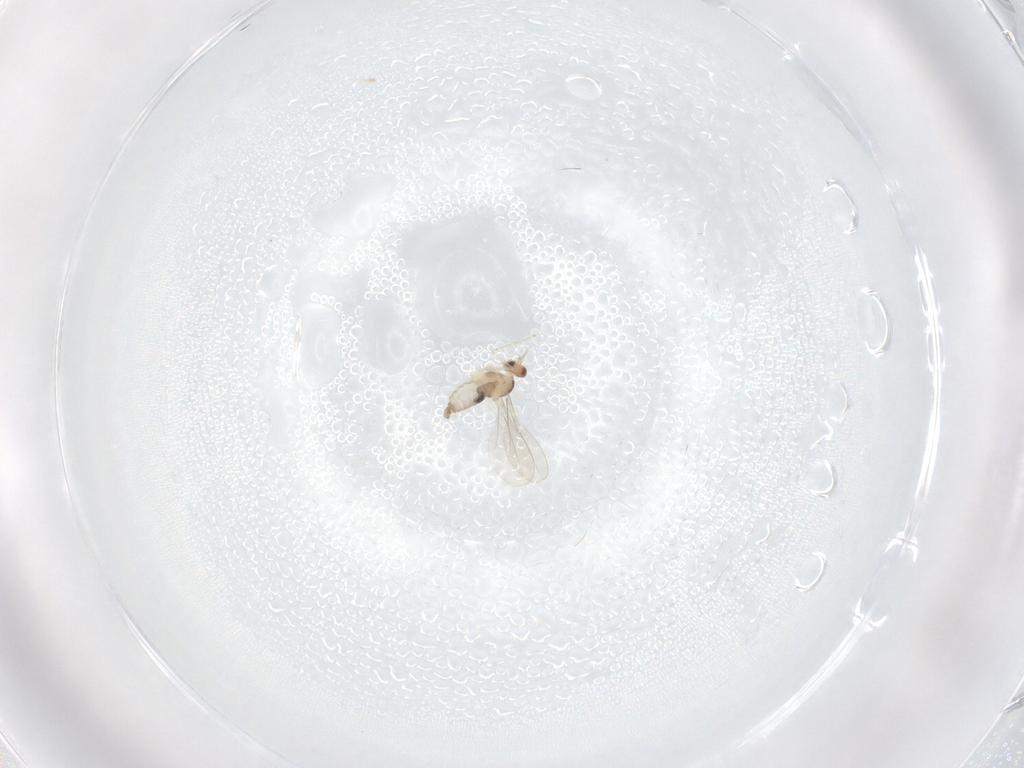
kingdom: Animalia
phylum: Arthropoda
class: Insecta
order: Diptera
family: Cecidomyiidae
